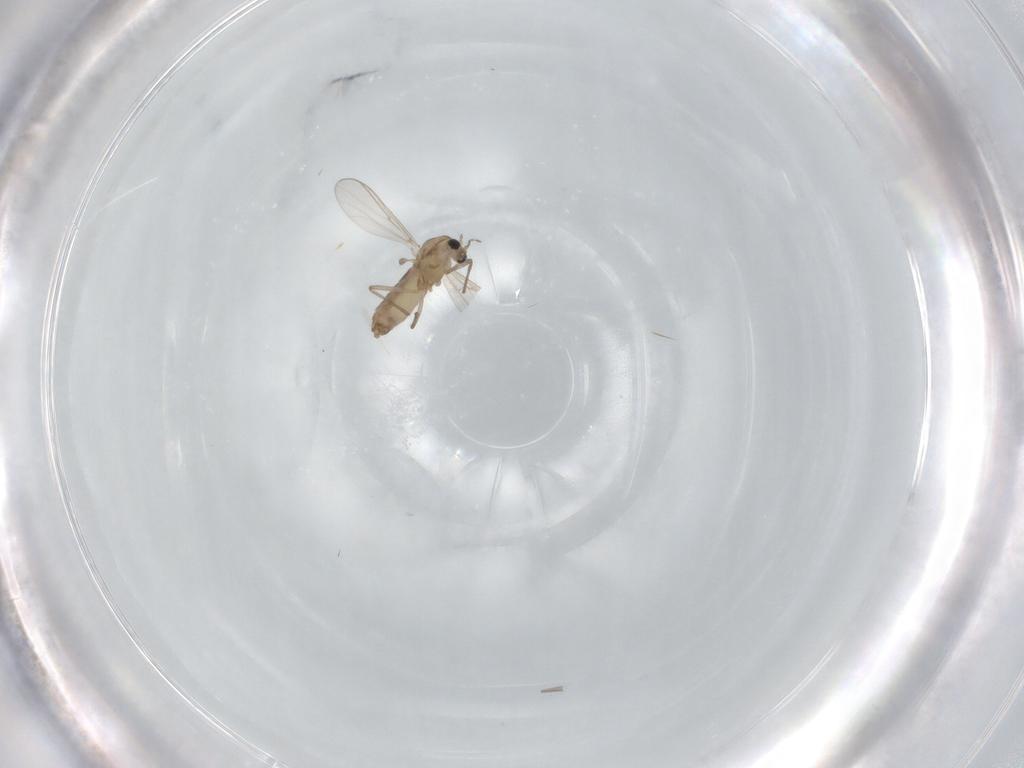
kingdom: Animalia
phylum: Arthropoda
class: Insecta
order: Diptera
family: Chironomidae
